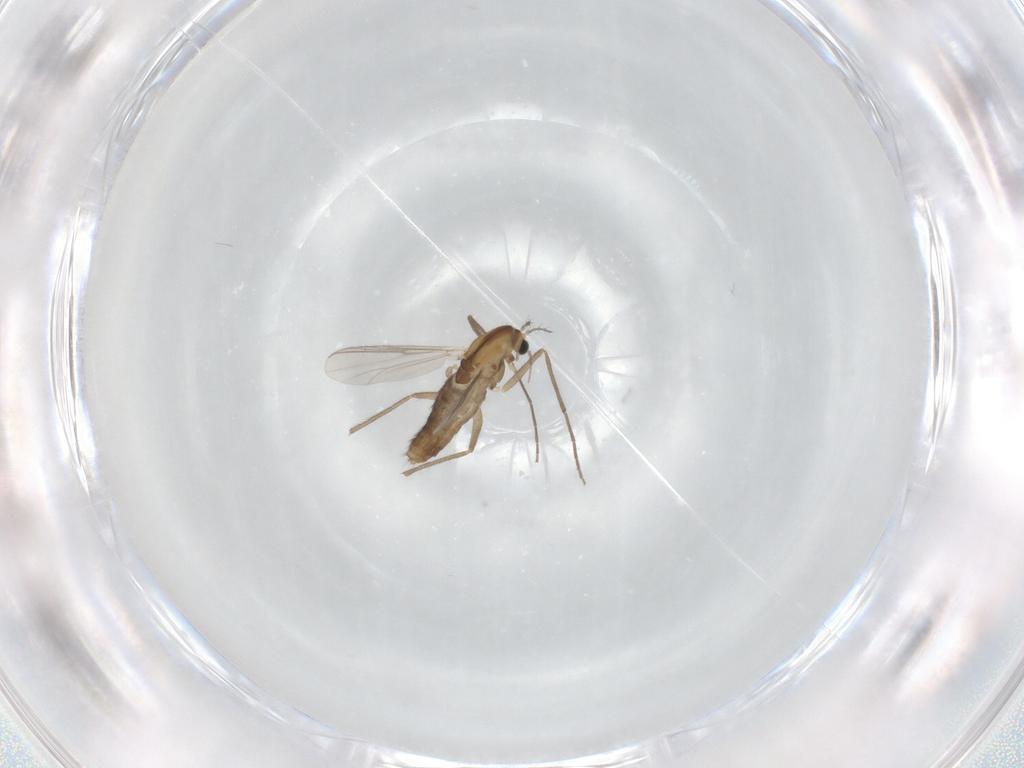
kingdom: Animalia
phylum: Arthropoda
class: Insecta
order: Diptera
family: Chironomidae
